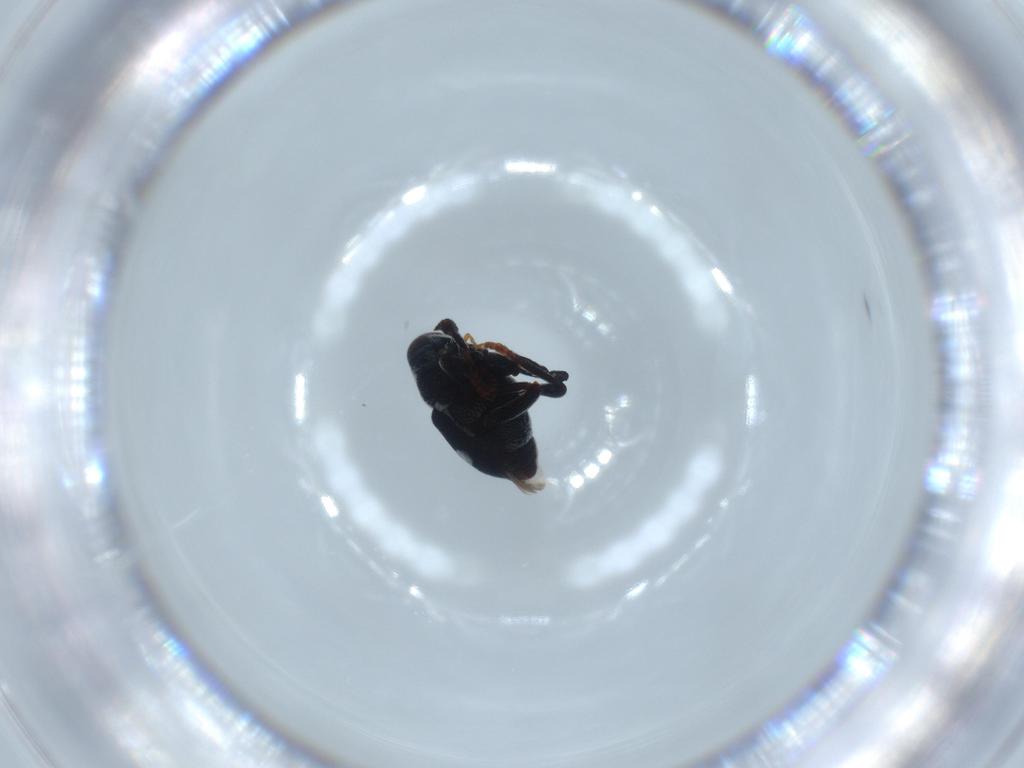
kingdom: Animalia
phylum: Arthropoda
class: Insecta
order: Coleoptera
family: Curculionidae
